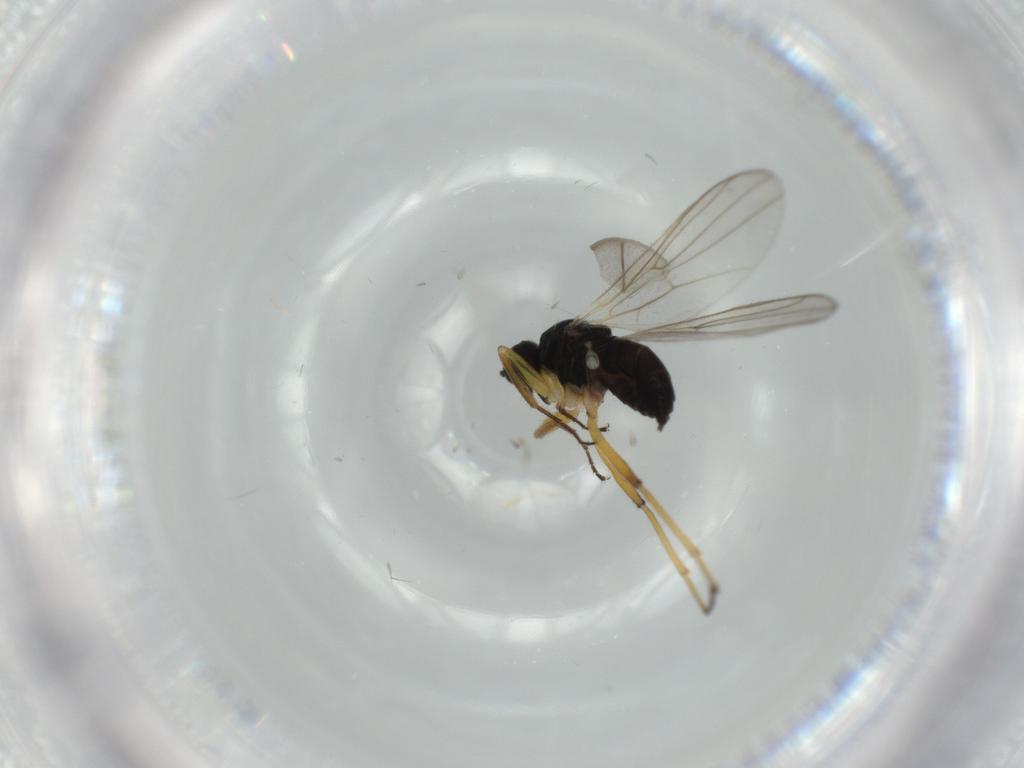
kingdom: Animalia
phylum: Arthropoda
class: Insecta
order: Diptera
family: Hybotidae
